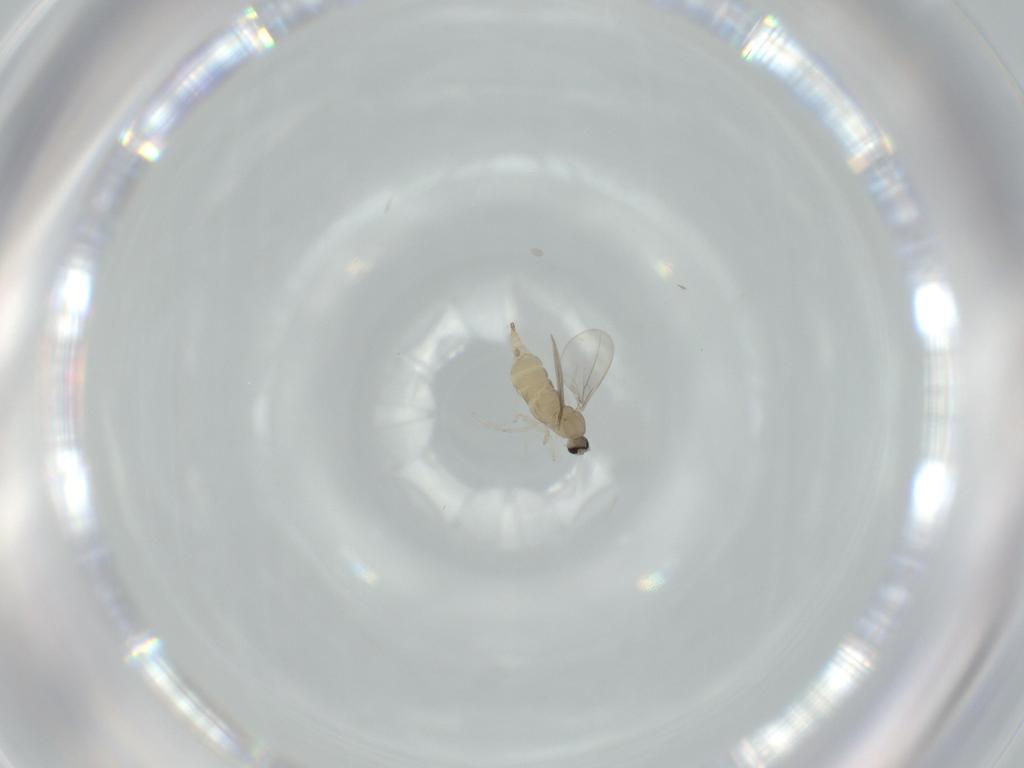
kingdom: Animalia
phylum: Arthropoda
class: Insecta
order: Diptera
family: Cecidomyiidae
